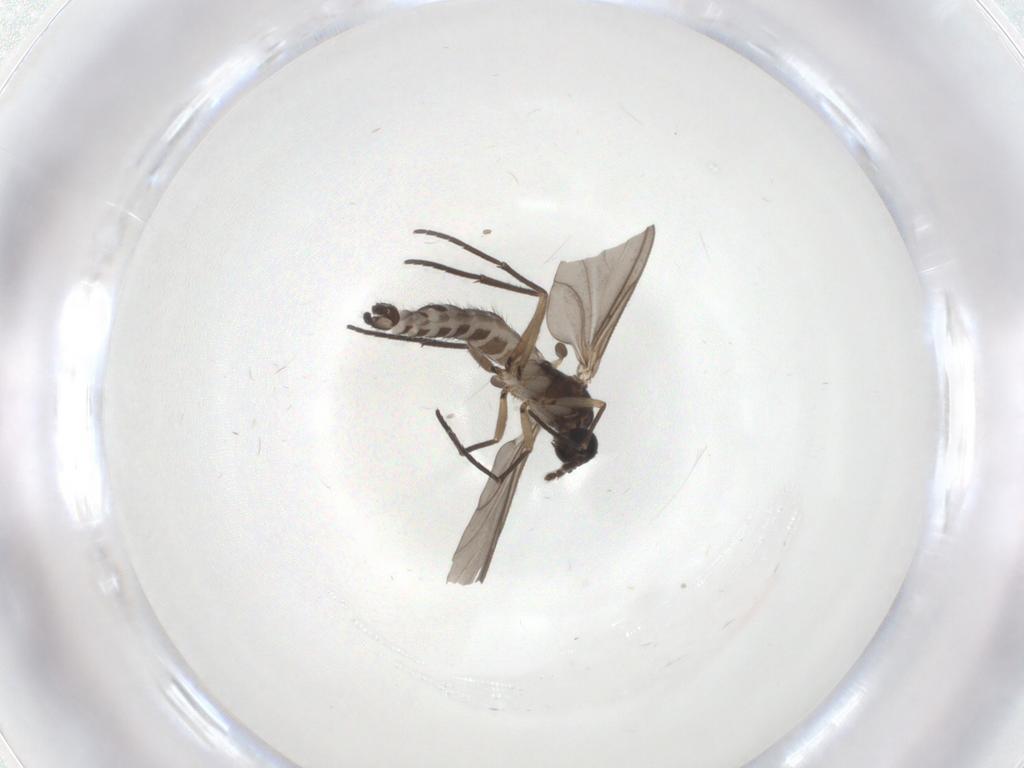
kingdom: Animalia
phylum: Arthropoda
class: Insecta
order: Diptera
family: Sciaridae
